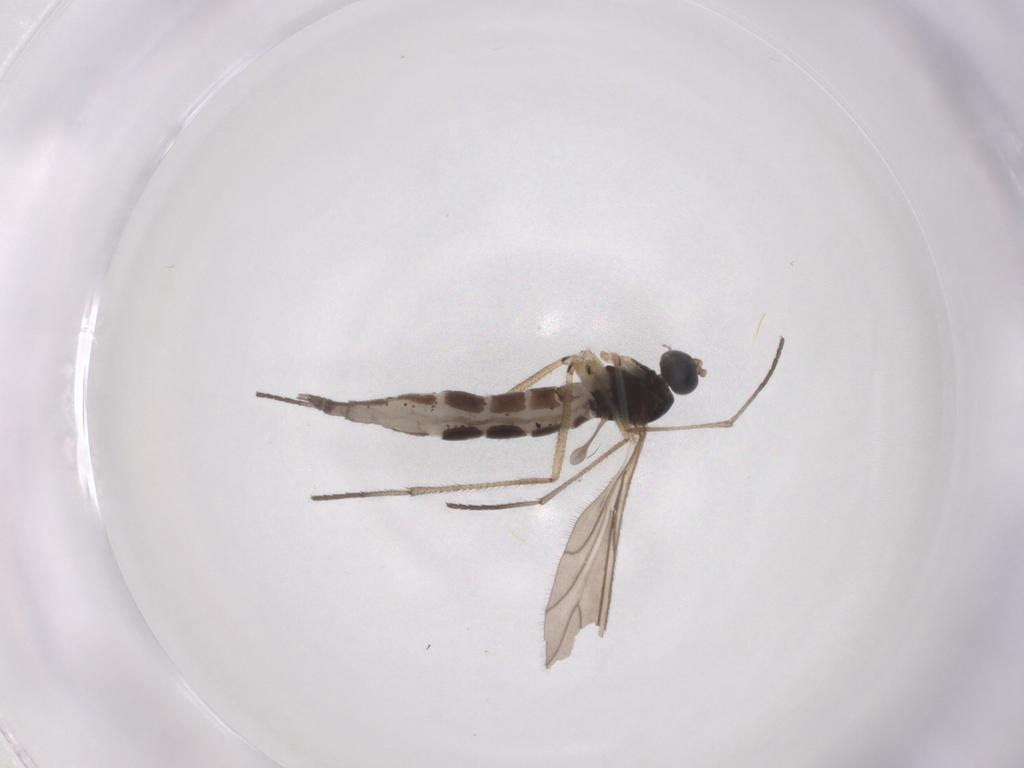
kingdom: Animalia
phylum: Arthropoda
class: Insecta
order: Diptera
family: Sciaridae
